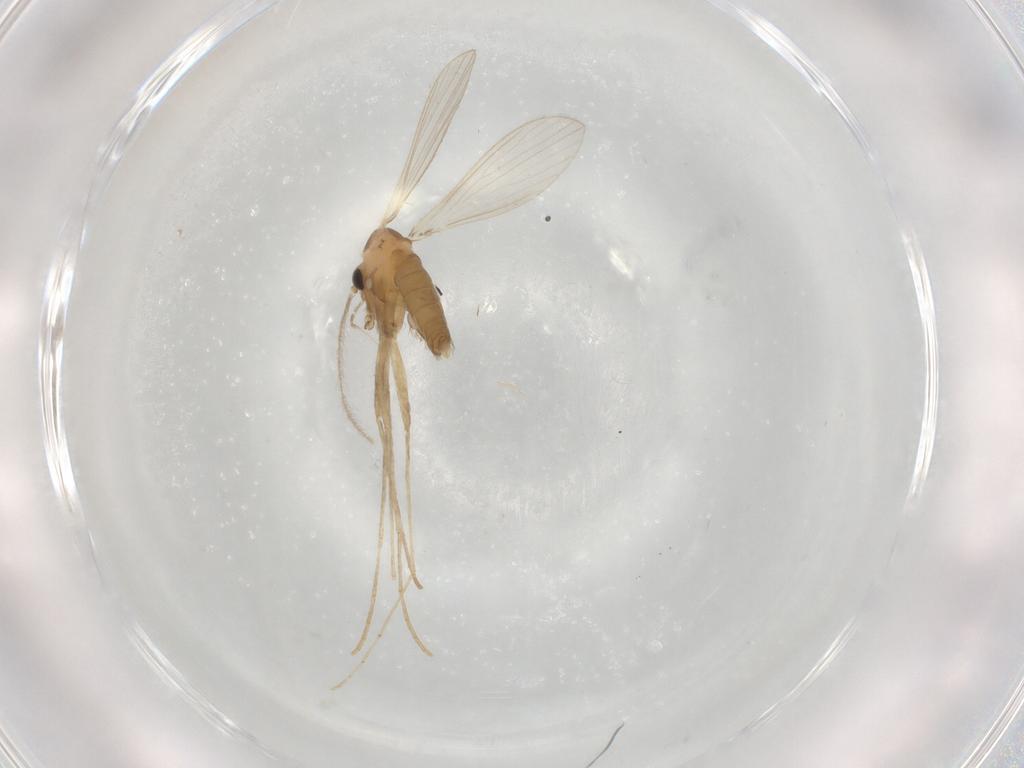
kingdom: Animalia
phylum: Arthropoda
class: Insecta
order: Diptera
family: Psychodidae
